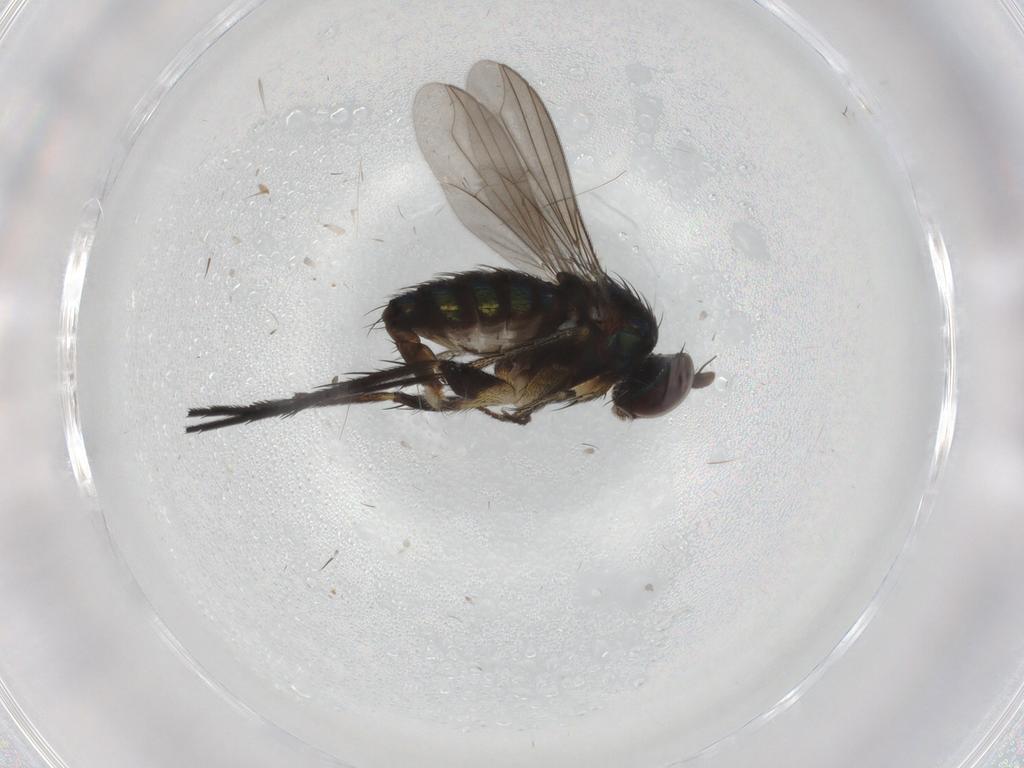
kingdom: Animalia
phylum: Arthropoda
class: Insecta
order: Diptera
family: Dolichopodidae
